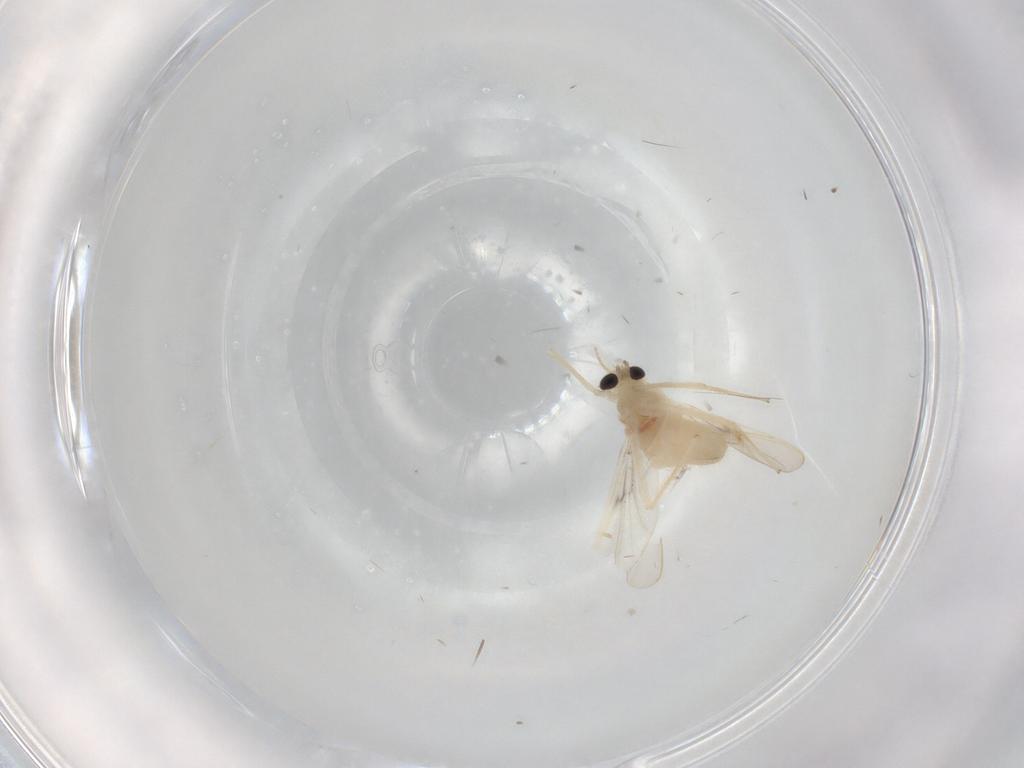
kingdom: Animalia
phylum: Arthropoda
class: Insecta
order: Diptera
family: Chironomidae
